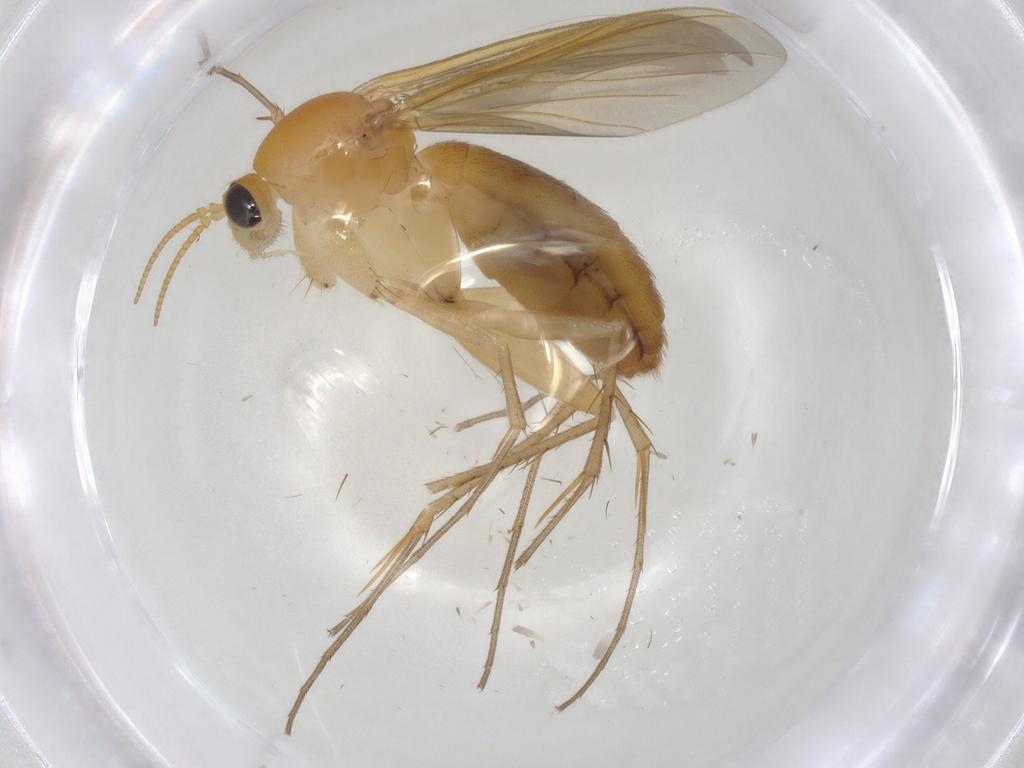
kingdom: Animalia
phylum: Arthropoda
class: Insecta
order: Diptera
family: Mycetophilidae
